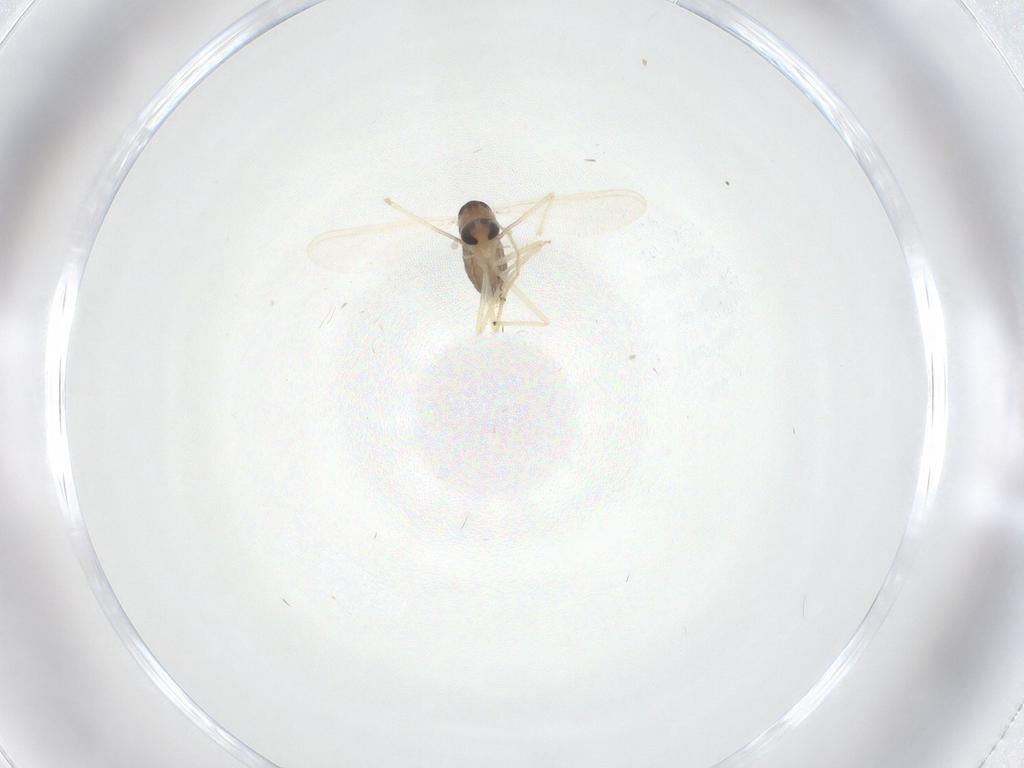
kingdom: Animalia
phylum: Arthropoda
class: Insecta
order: Diptera
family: Chironomidae
